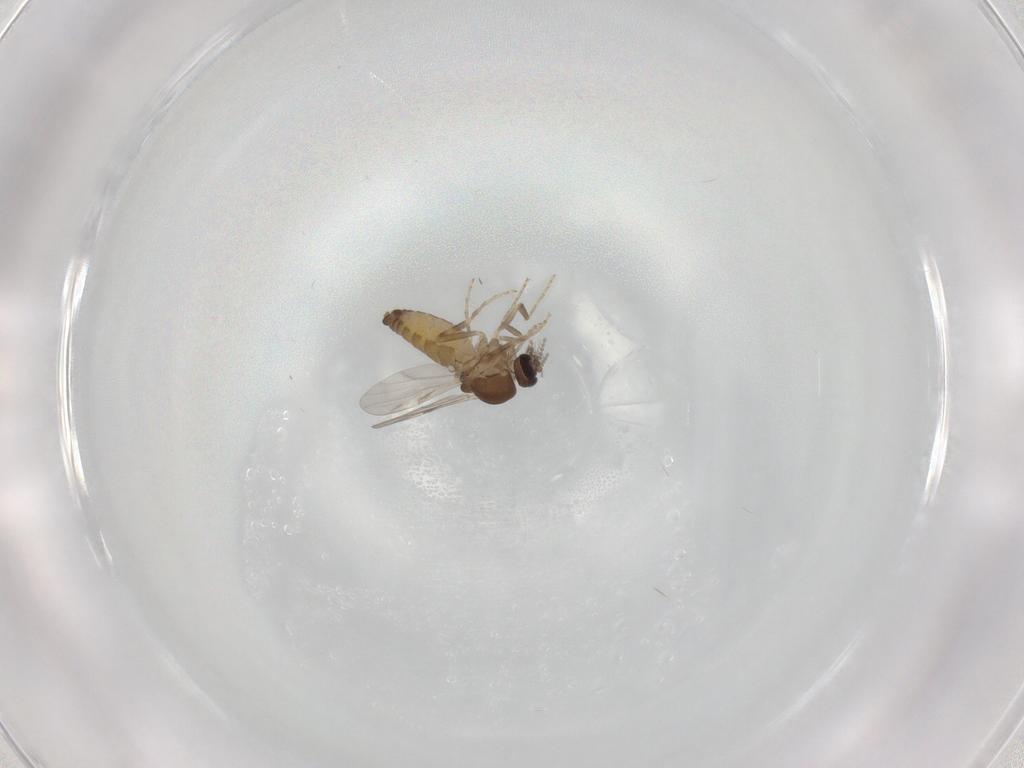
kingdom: Animalia
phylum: Arthropoda
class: Insecta
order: Diptera
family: Ceratopogonidae
